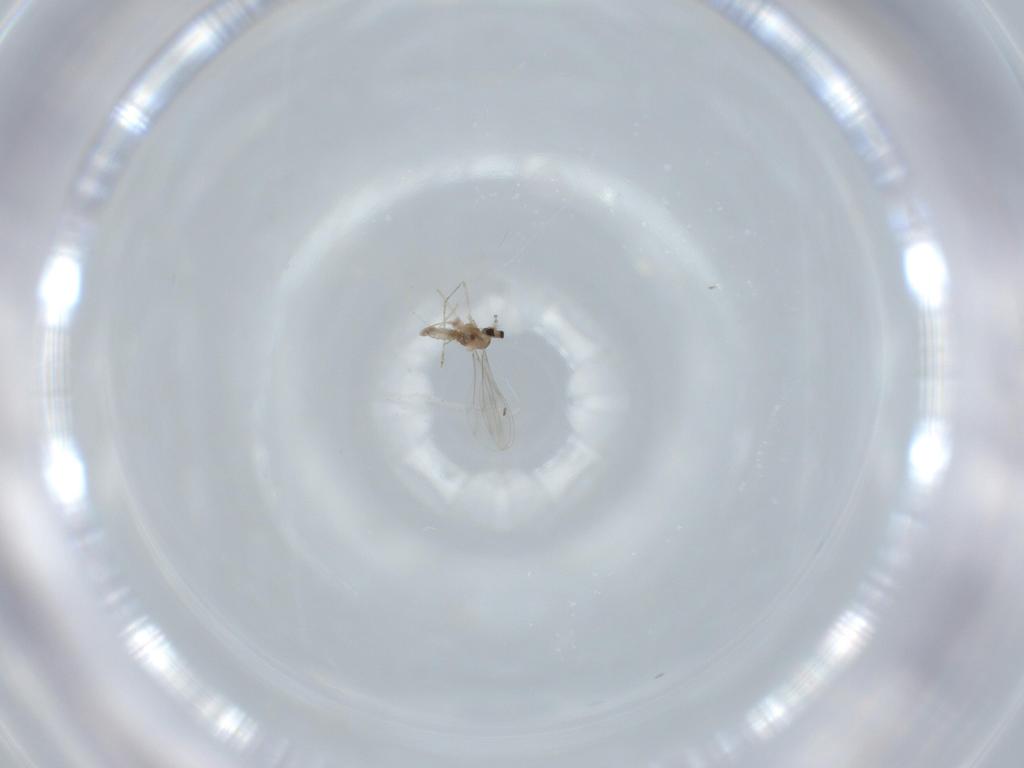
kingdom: Animalia
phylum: Arthropoda
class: Insecta
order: Diptera
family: Cecidomyiidae
